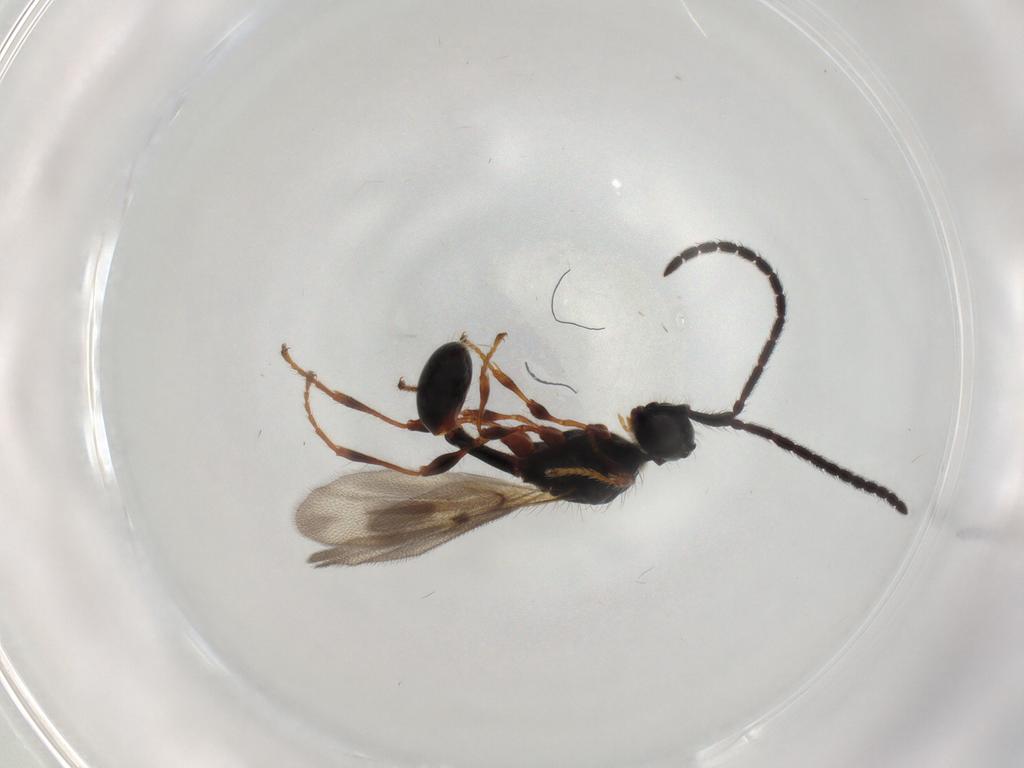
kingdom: Animalia
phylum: Arthropoda
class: Insecta
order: Hymenoptera
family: Diapriidae
